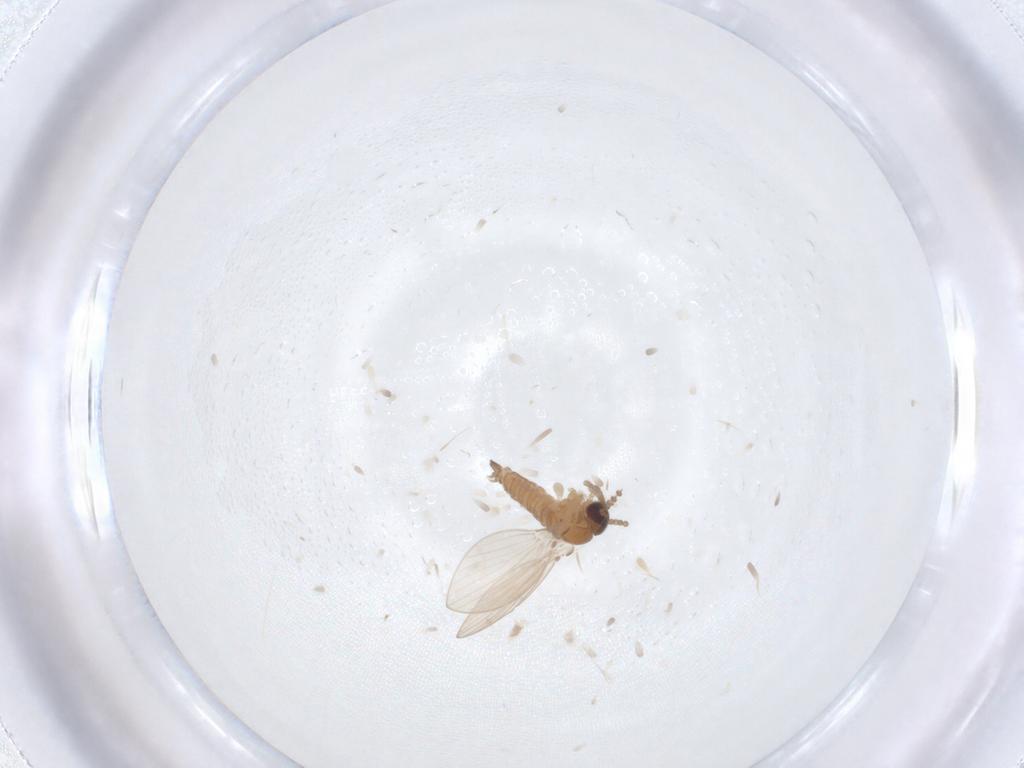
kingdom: Animalia
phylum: Arthropoda
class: Insecta
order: Diptera
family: Psychodidae
